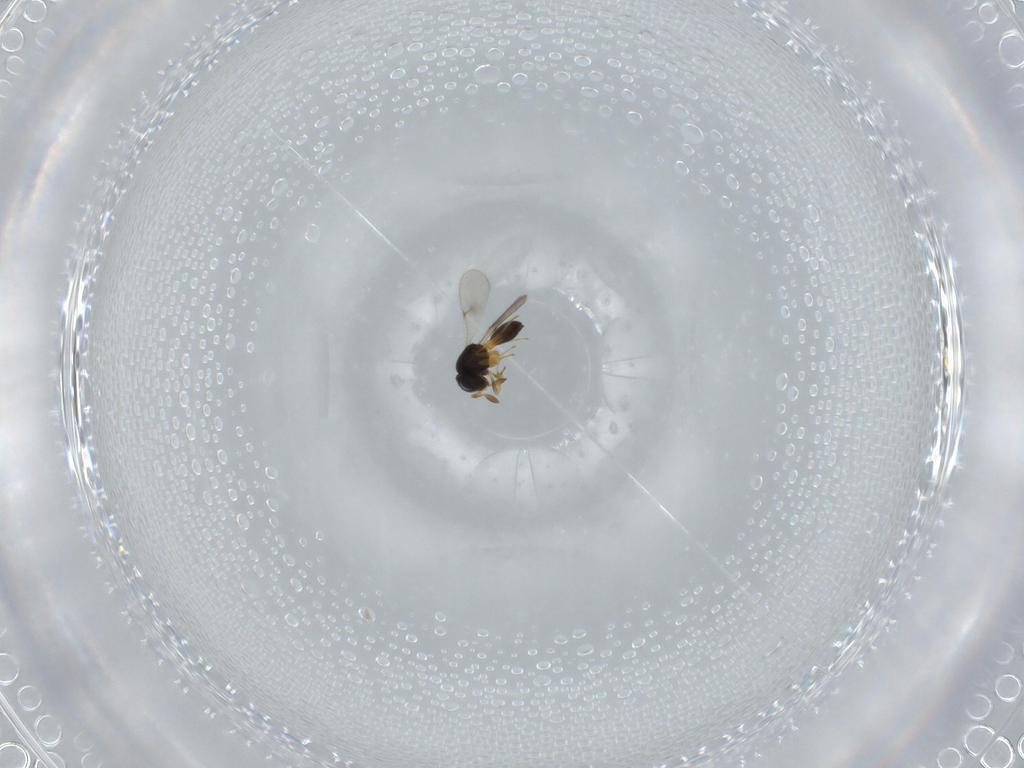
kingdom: Animalia
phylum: Arthropoda
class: Insecta
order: Hymenoptera
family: Scelionidae
